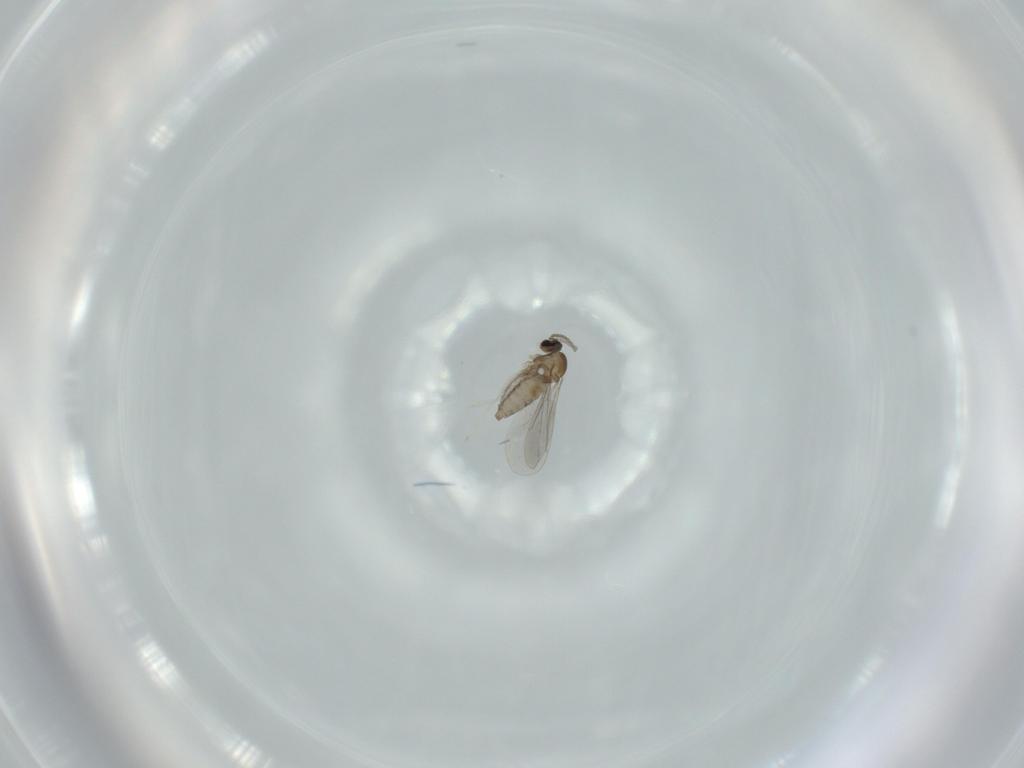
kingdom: Animalia
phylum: Arthropoda
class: Insecta
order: Diptera
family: Cecidomyiidae
